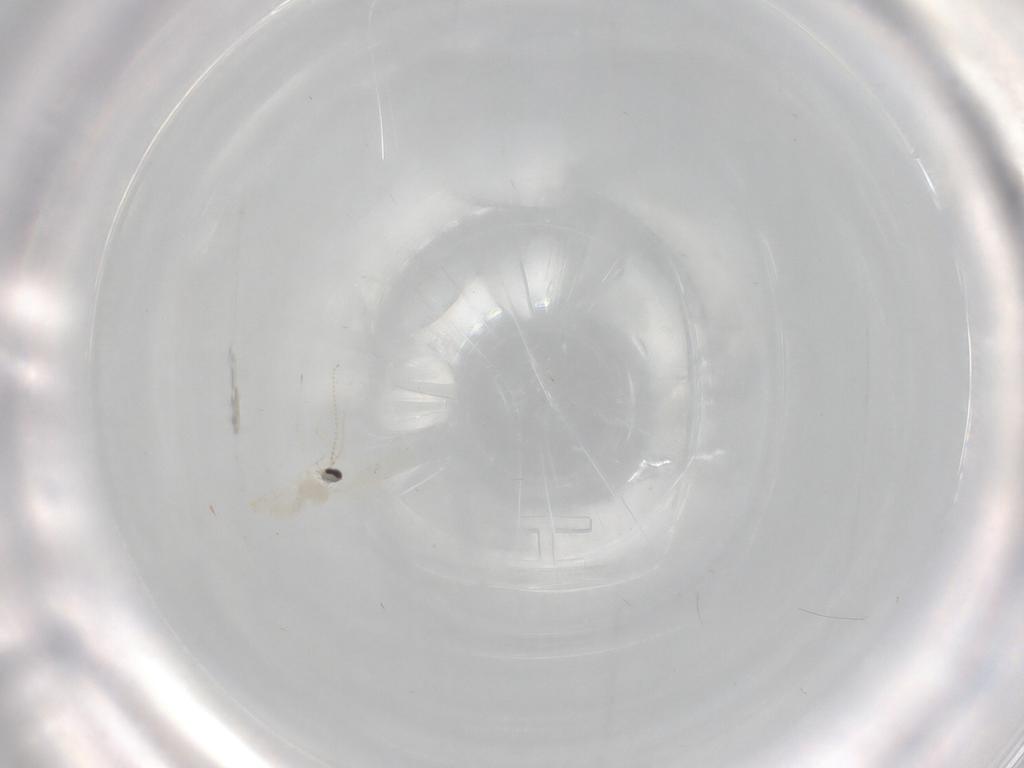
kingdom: Animalia
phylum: Arthropoda
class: Insecta
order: Diptera
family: Cecidomyiidae
